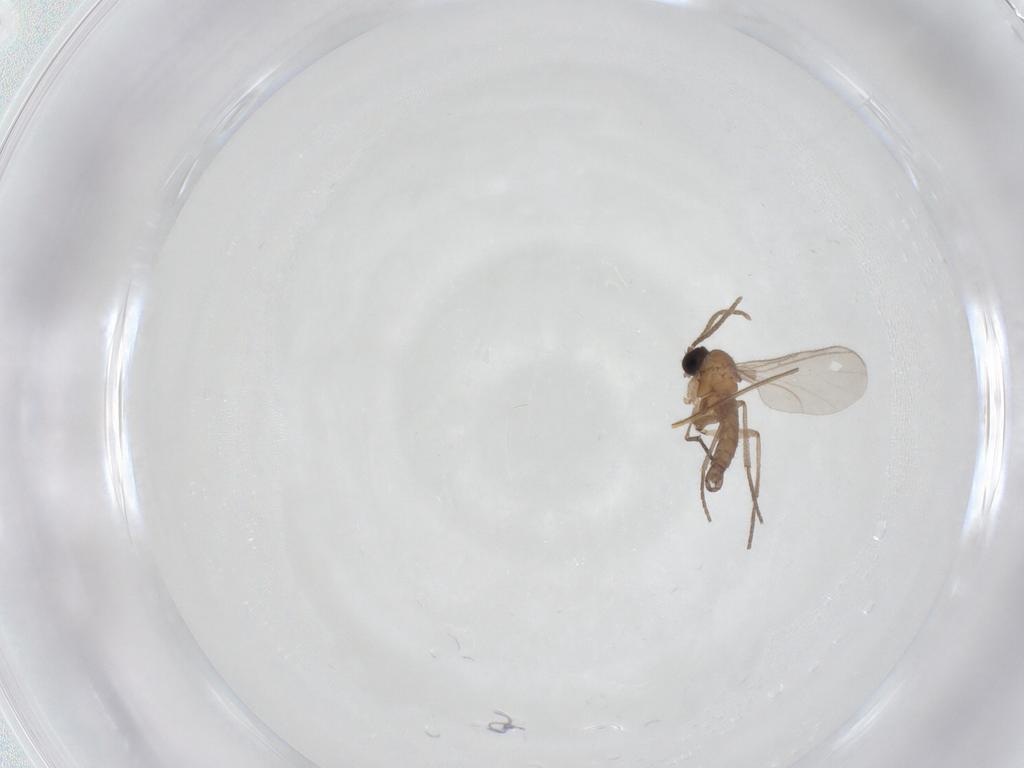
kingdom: Animalia
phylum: Arthropoda
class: Insecta
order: Diptera
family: Sciaridae
